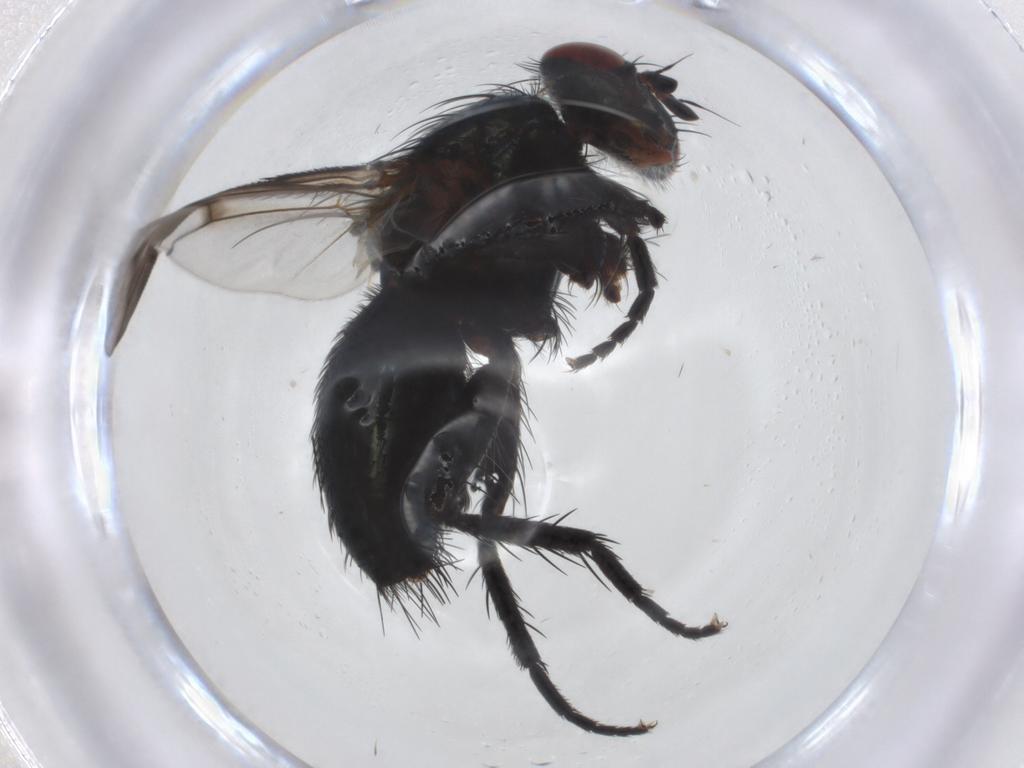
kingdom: Animalia
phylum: Arthropoda
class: Insecta
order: Diptera
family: Tachinidae
